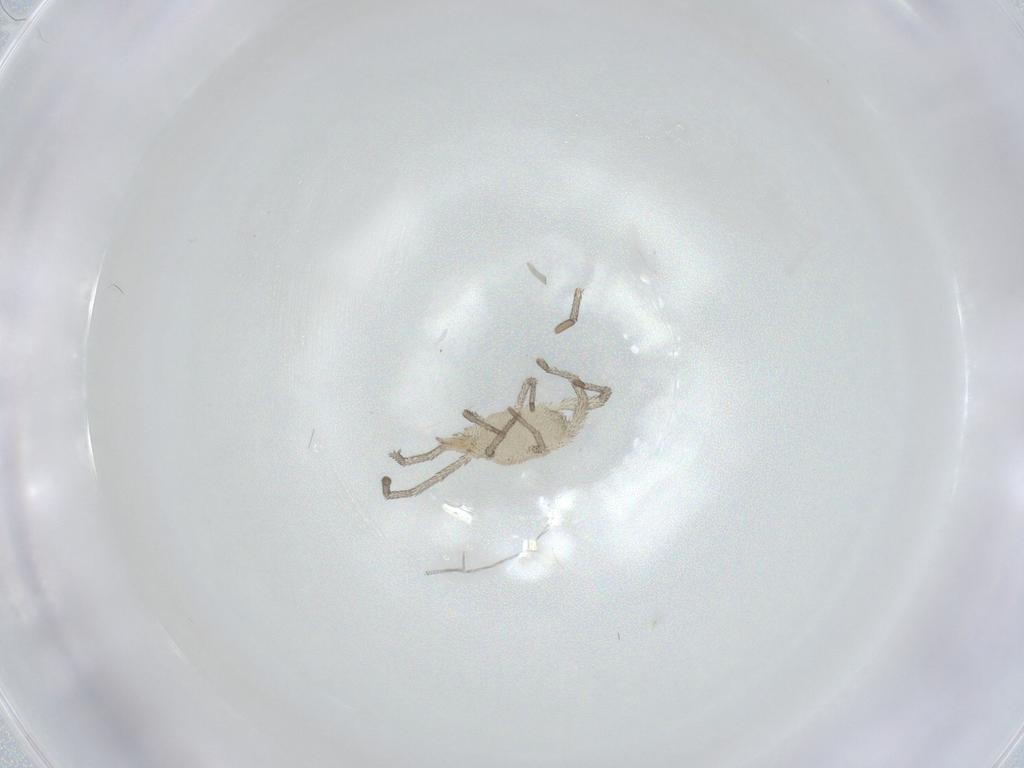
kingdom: Animalia
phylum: Arthropoda
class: Arachnida
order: Trombidiformes
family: Smarididae
